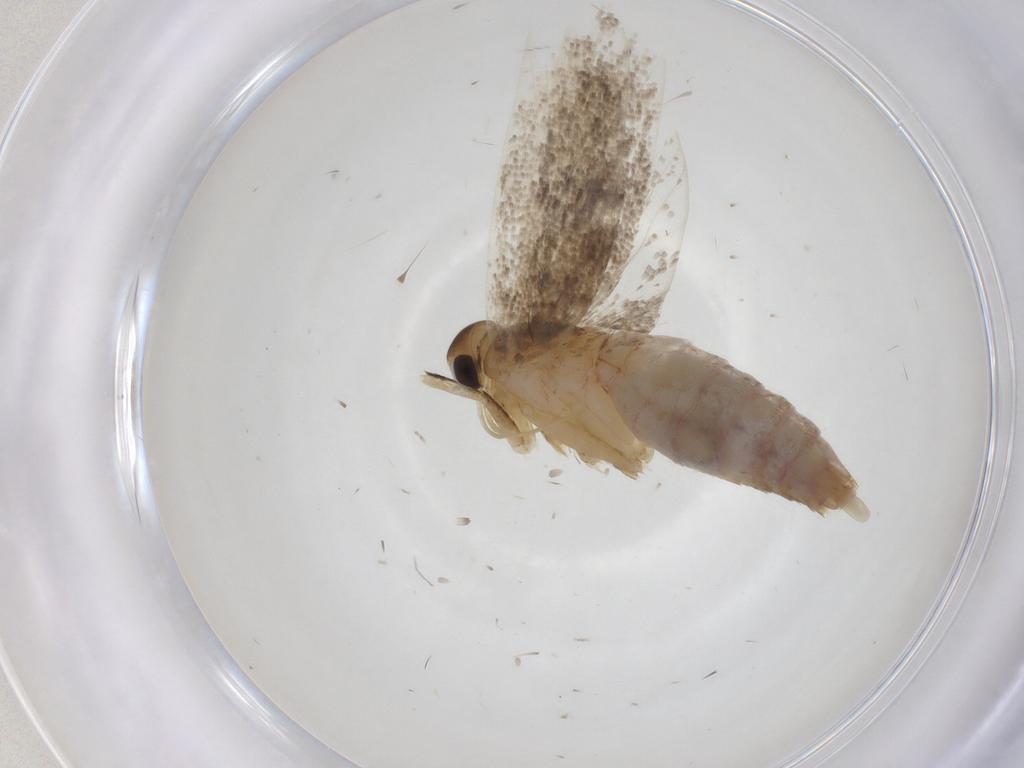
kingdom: Animalia
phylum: Arthropoda
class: Insecta
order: Lepidoptera
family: Lecithoceridae
